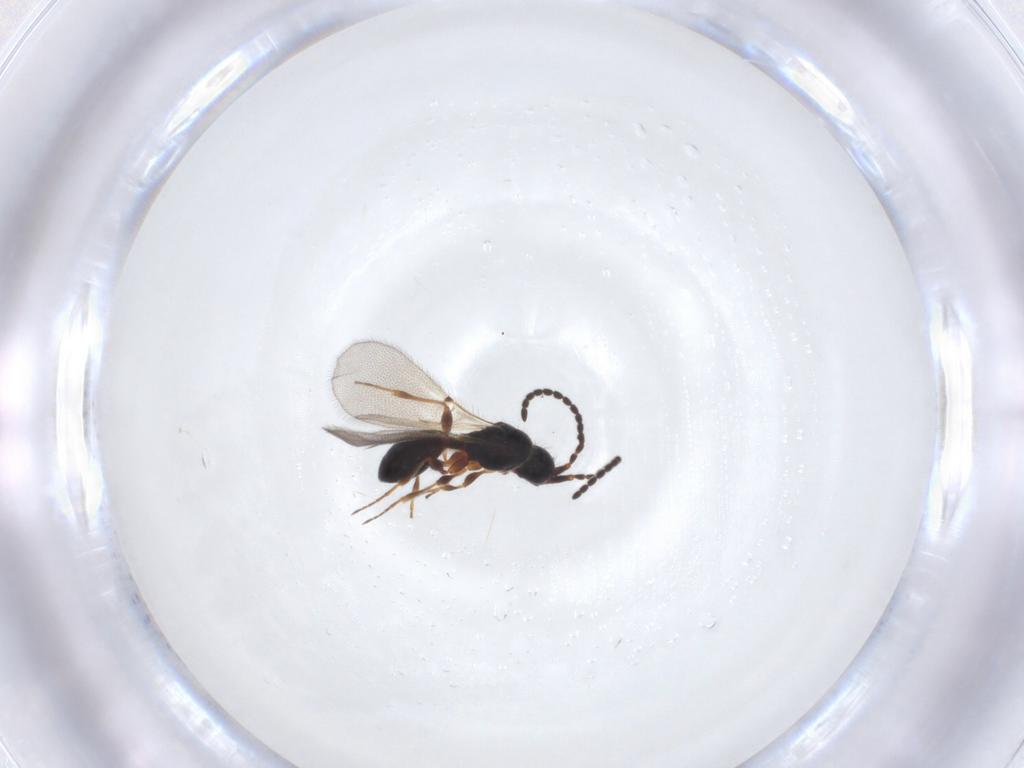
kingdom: Animalia
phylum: Arthropoda
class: Insecta
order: Hymenoptera
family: Diapriidae
